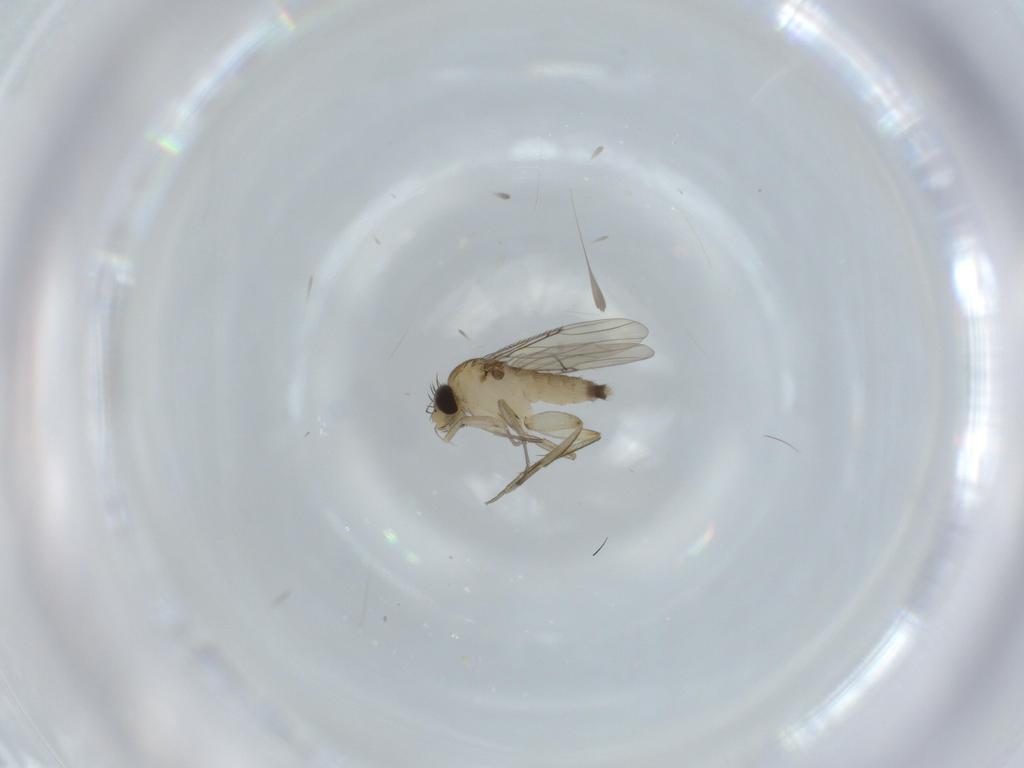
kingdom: Animalia
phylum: Arthropoda
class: Insecta
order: Diptera
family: Phoridae
